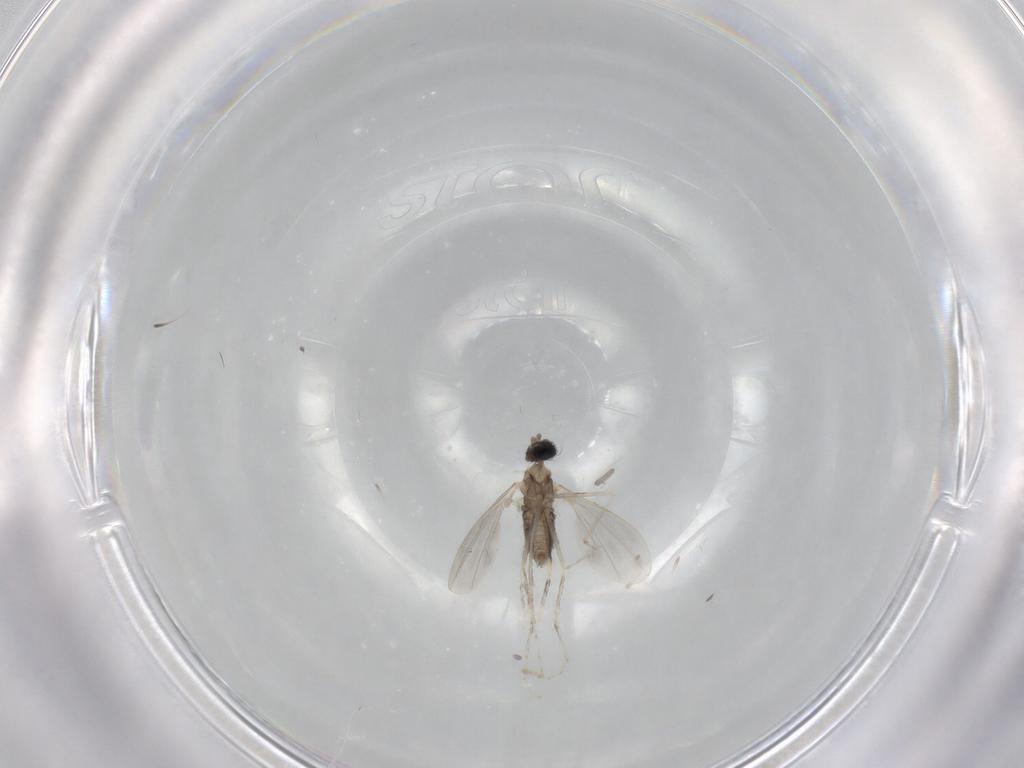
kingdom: Animalia
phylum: Arthropoda
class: Insecta
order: Diptera
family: Cecidomyiidae
